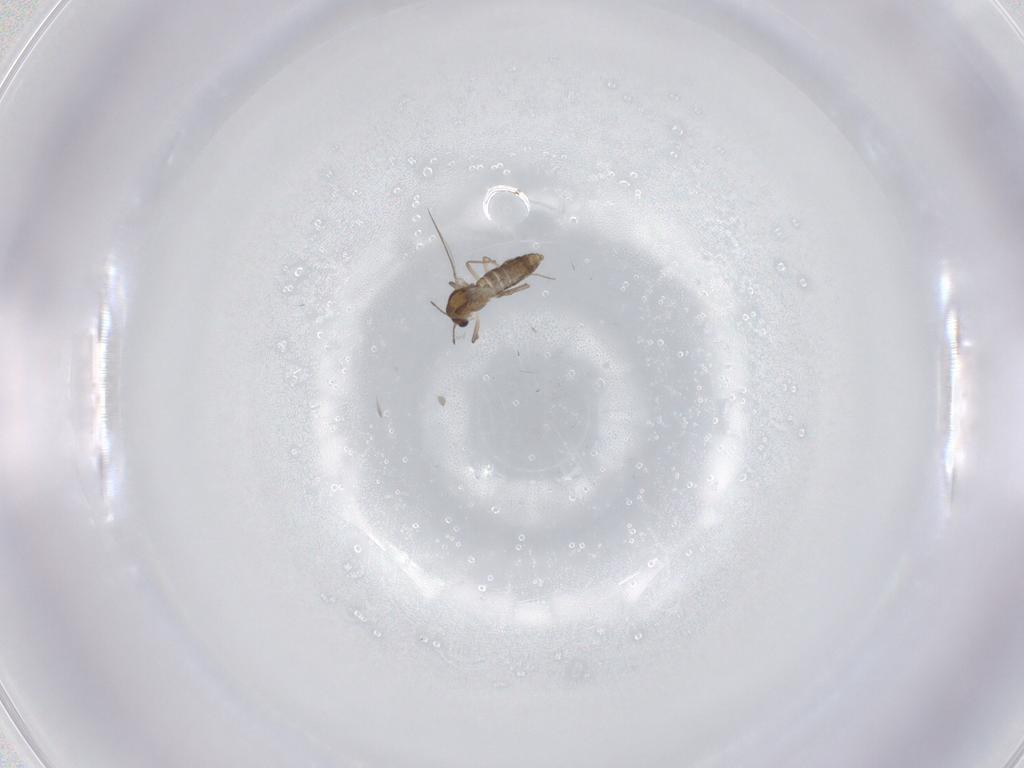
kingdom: Animalia
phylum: Arthropoda
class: Insecta
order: Diptera
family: Chironomidae
